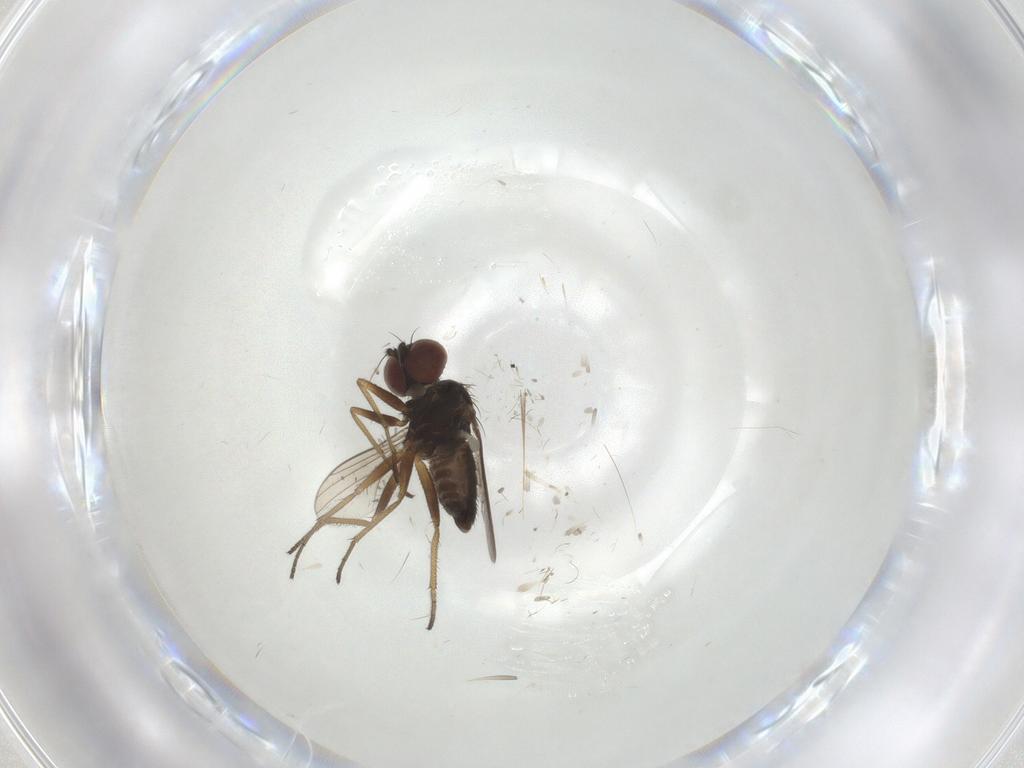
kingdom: Animalia
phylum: Arthropoda
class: Insecta
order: Diptera
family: Dolichopodidae
